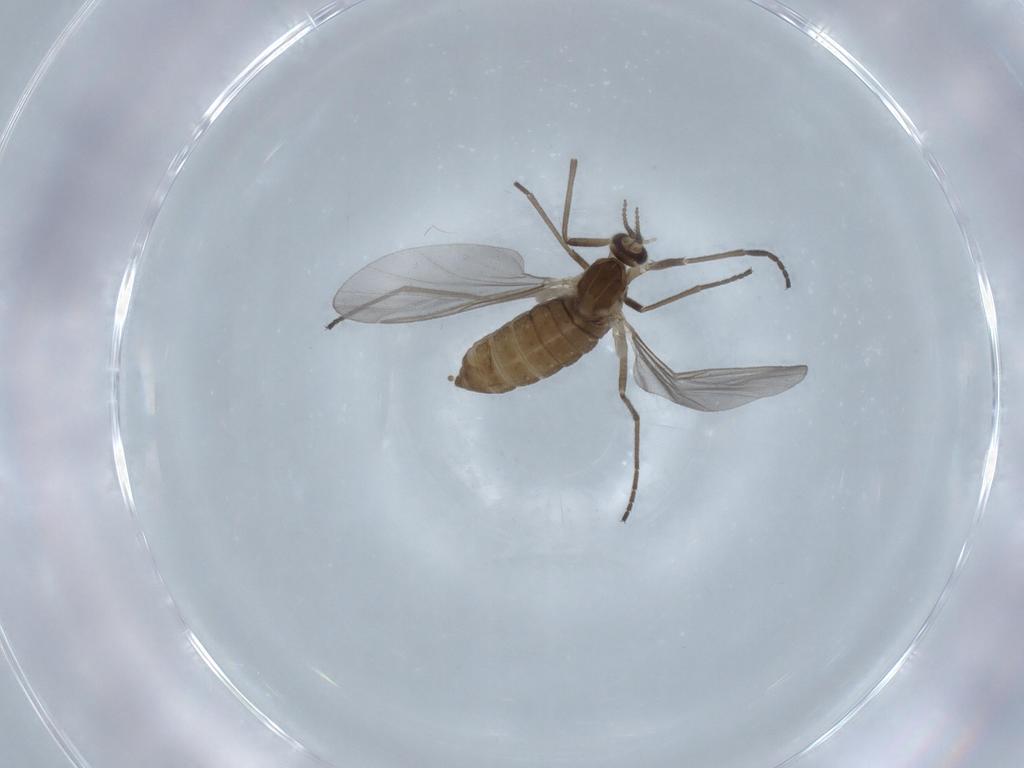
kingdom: Animalia
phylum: Arthropoda
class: Insecta
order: Diptera
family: Cecidomyiidae
